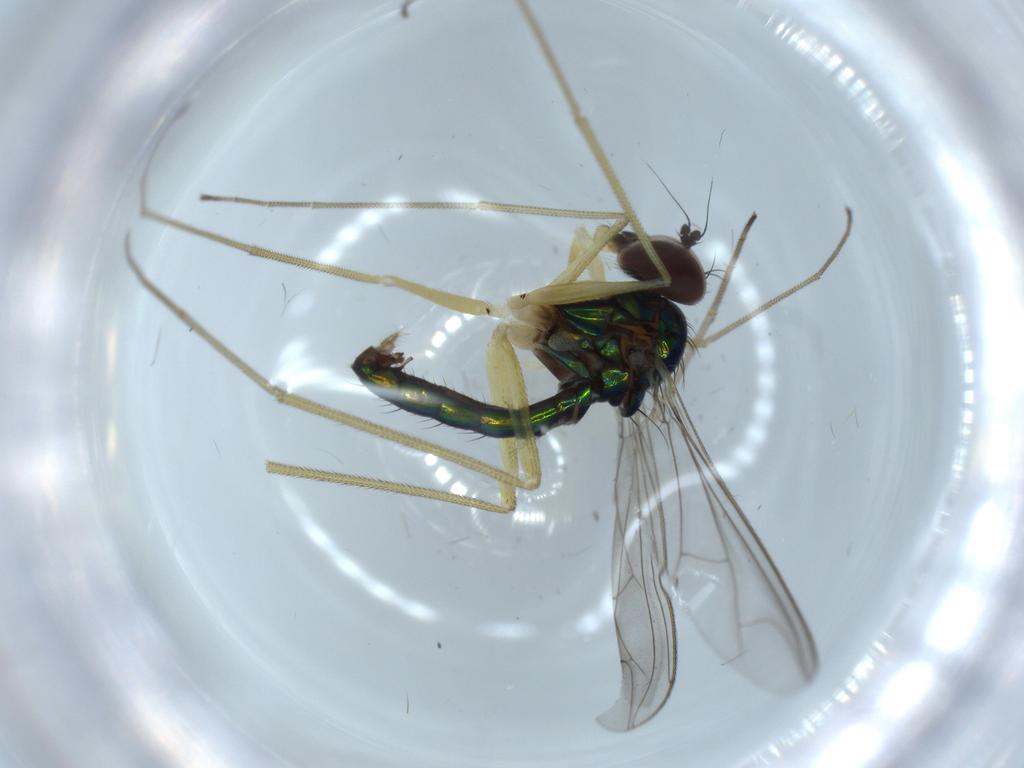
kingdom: Animalia
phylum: Arthropoda
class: Insecta
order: Diptera
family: Dolichopodidae
